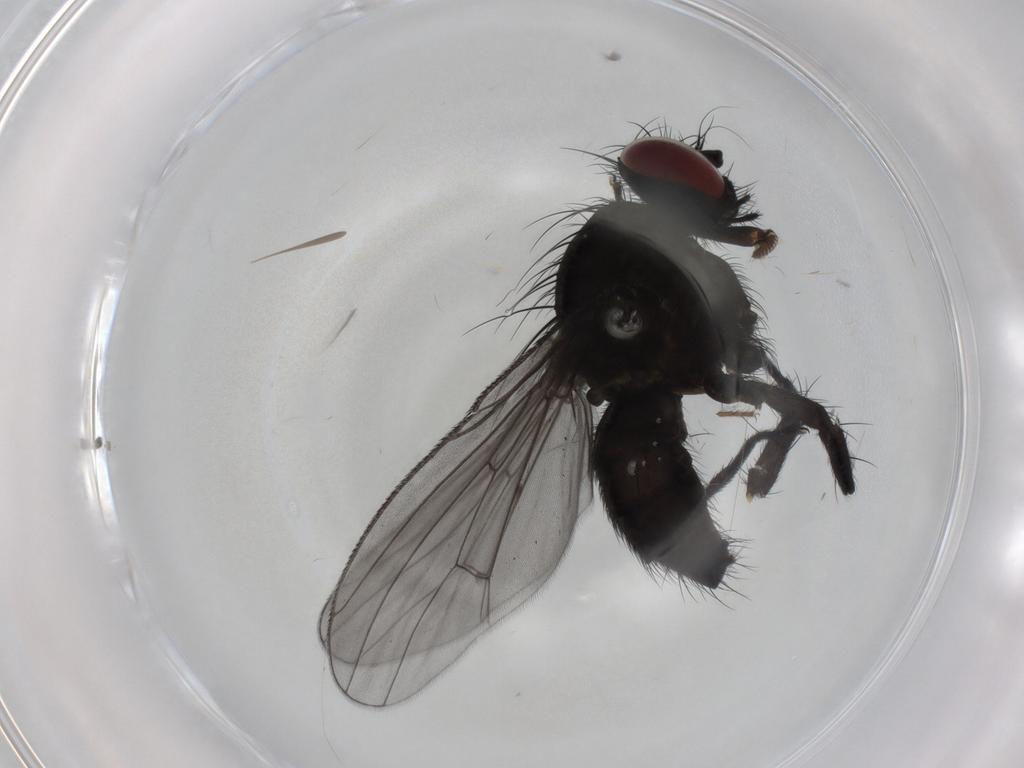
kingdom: Animalia
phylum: Arthropoda
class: Insecta
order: Diptera
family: Muscidae
